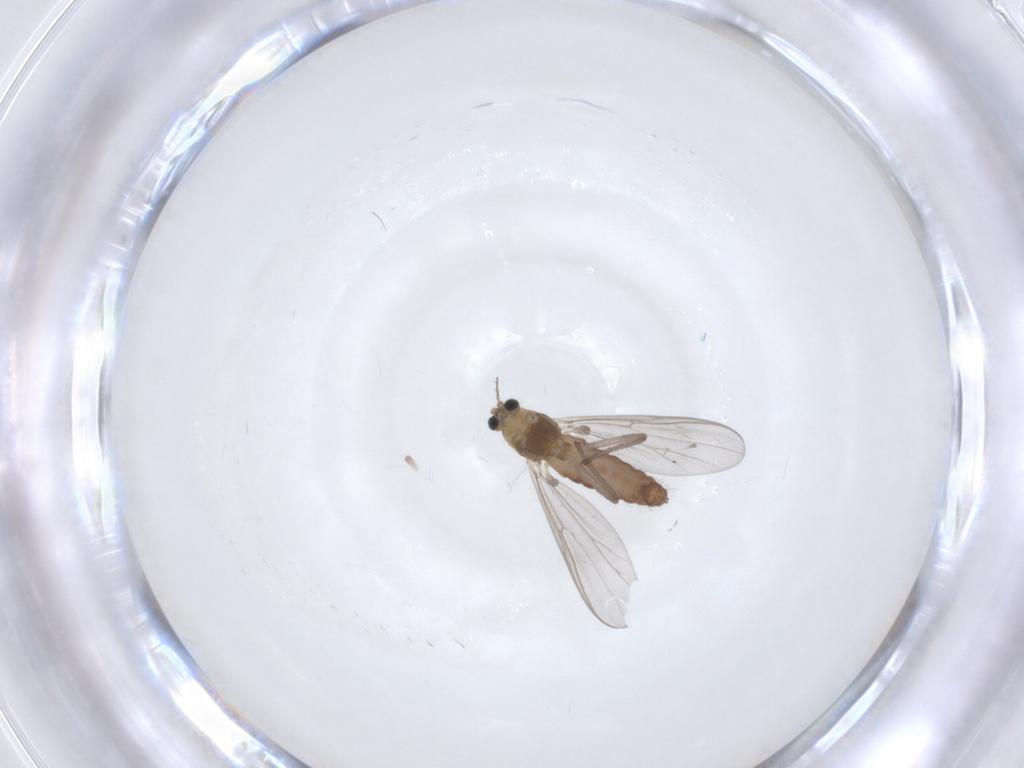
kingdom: Animalia
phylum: Arthropoda
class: Insecta
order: Diptera
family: Chironomidae
